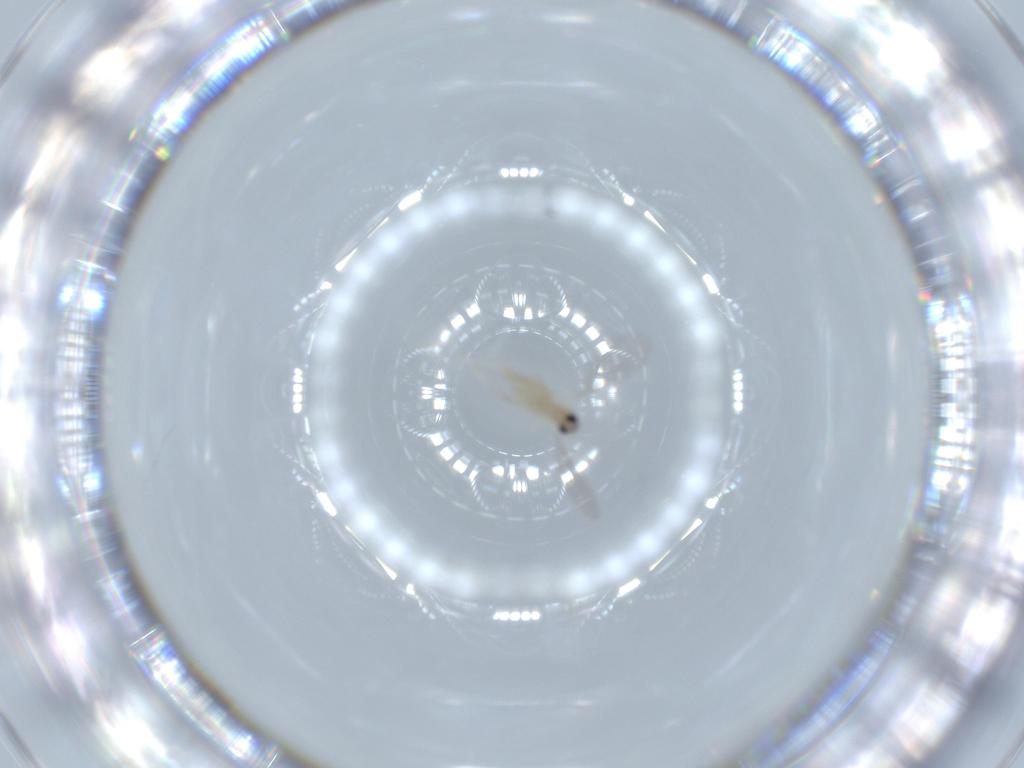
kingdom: Animalia
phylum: Arthropoda
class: Insecta
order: Diptera
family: Cecidomyiidae
